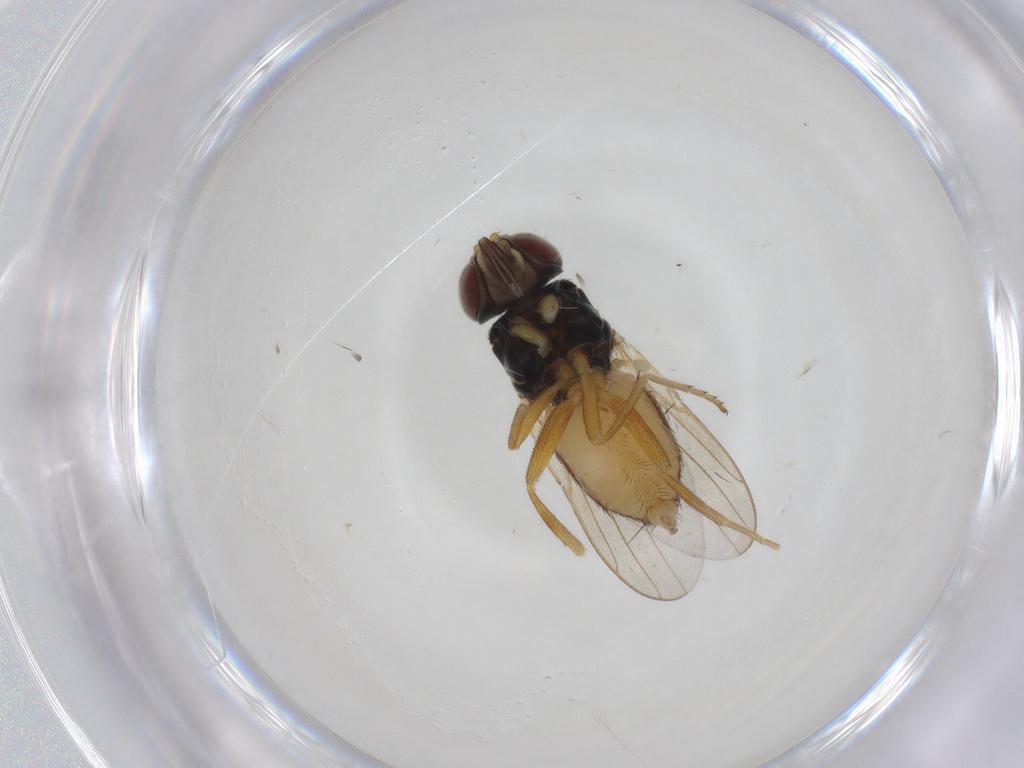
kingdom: Animalia
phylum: Arthropoda
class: Insecta
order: Diptera
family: Chloropidae
